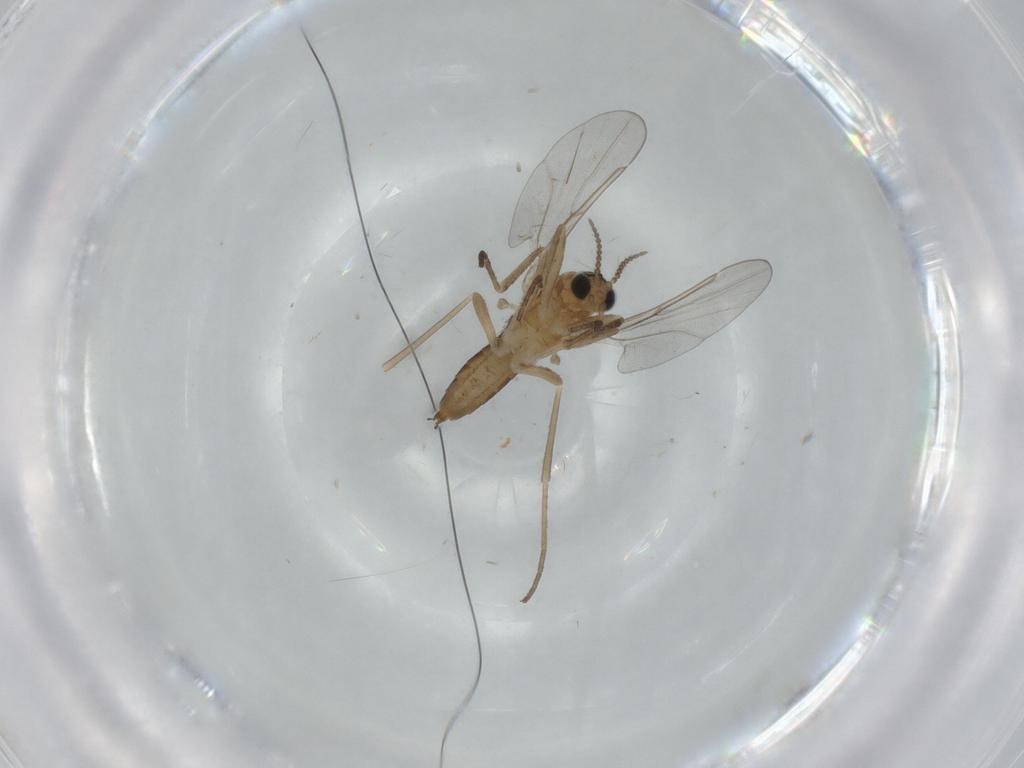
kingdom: Animalia
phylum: Arthropoda
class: Insecta
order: Diptera
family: Cecidomyiidae
